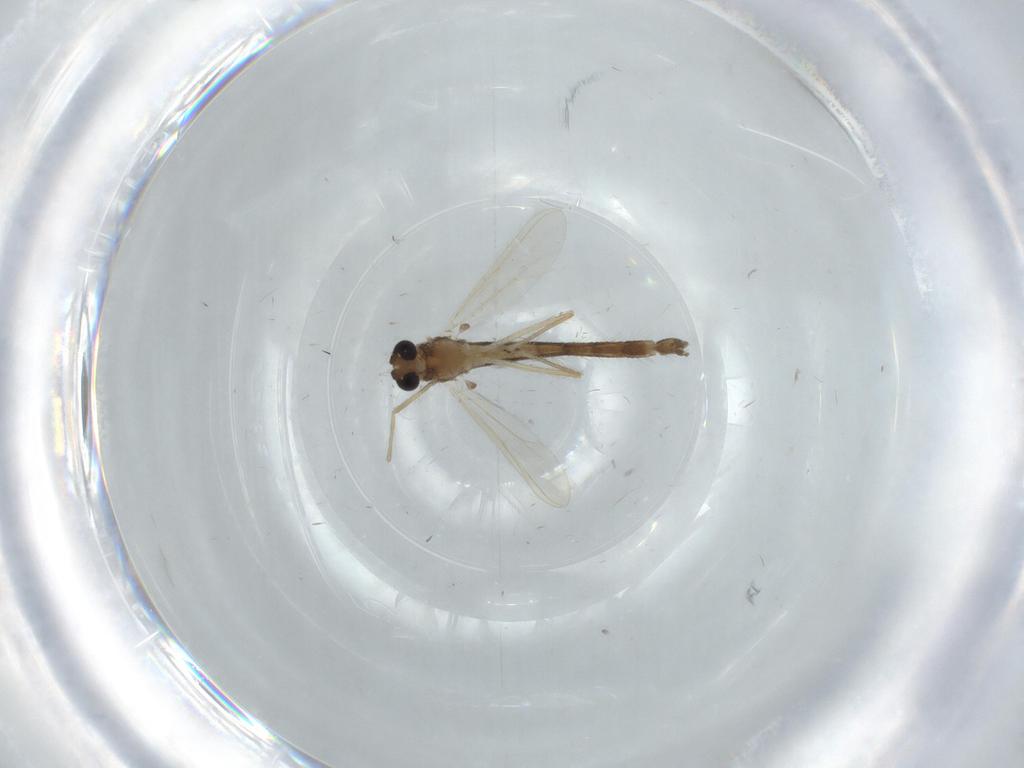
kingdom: Animalia
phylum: Arthropoda
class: Insecta
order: Diptera
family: Chironomidae
